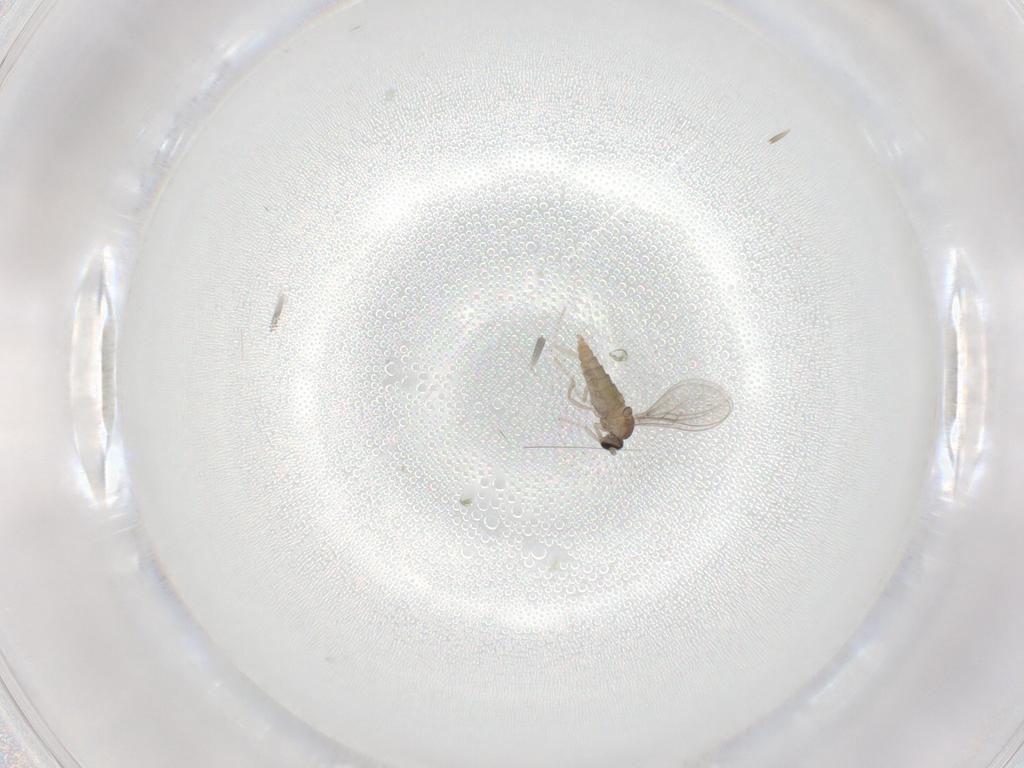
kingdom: Animalia
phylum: Arthropoda
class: Insecta
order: Diptera
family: Cecidomyiidae
